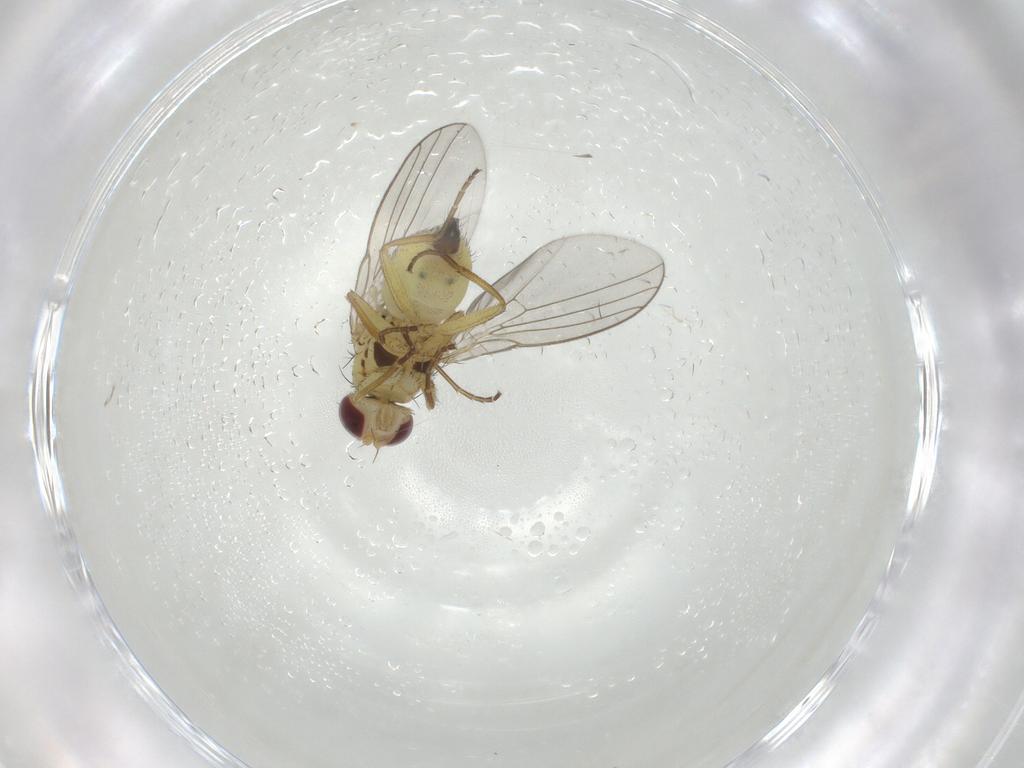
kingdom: Animalia
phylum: Arthropoda
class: Insecta
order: Diptera
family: Agromyzidae
